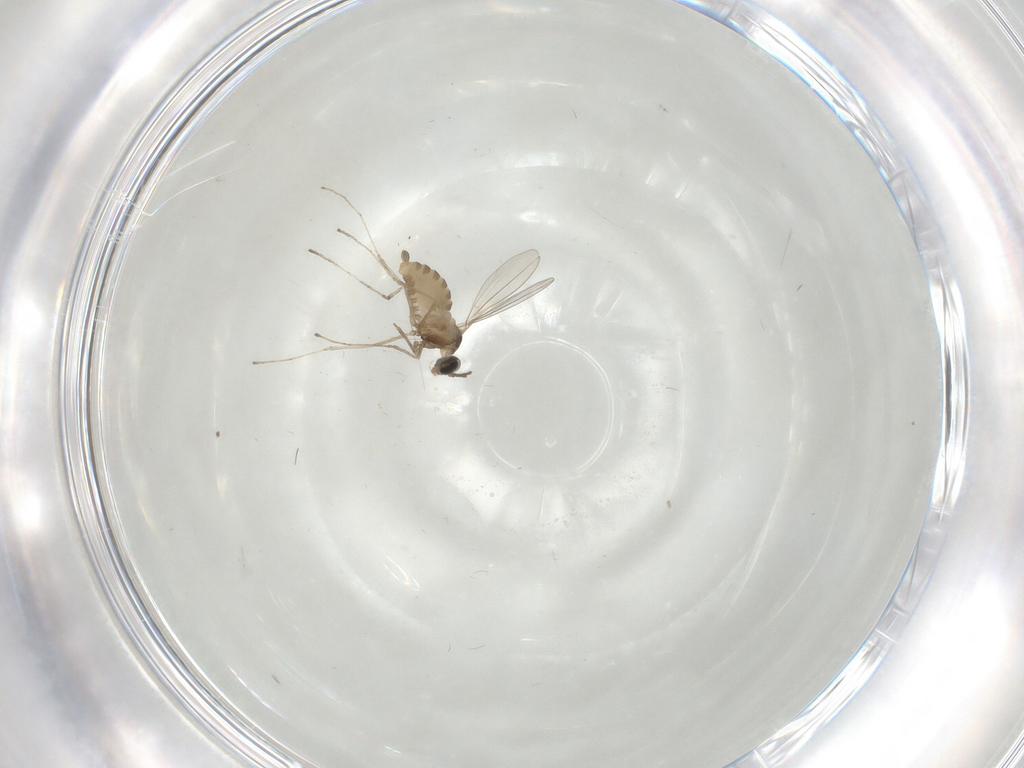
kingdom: Animalia
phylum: Arthropoda
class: Insecta
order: Diptera
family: Cecidomyiidae
